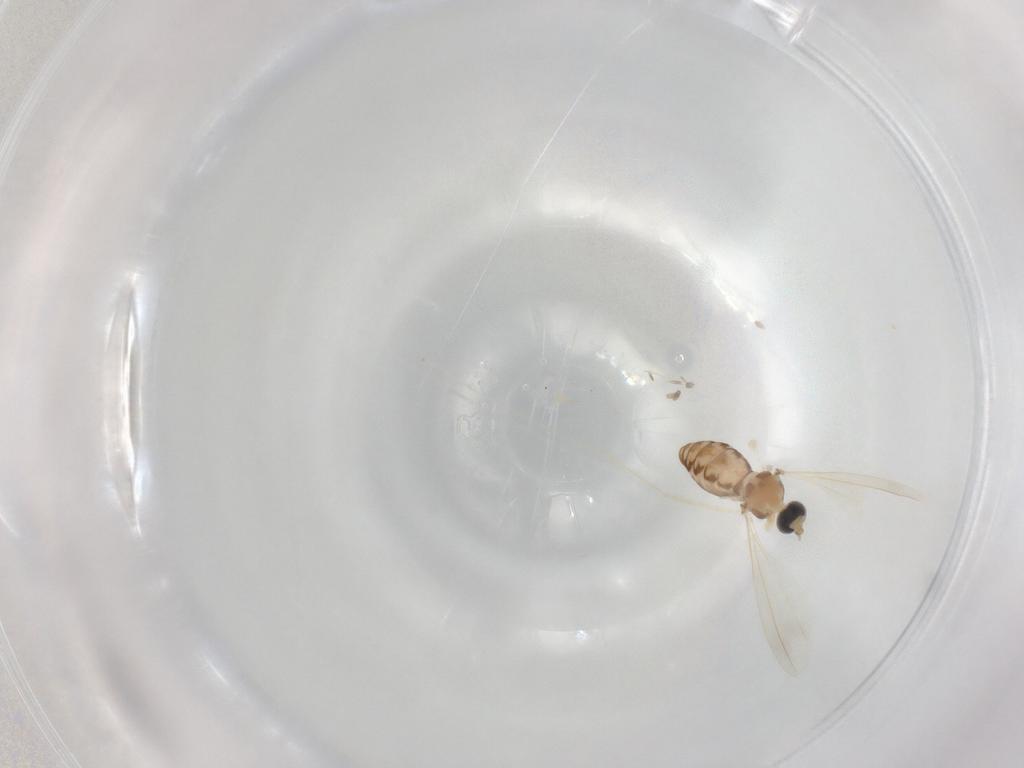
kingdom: Animalia
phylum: Arthropoda
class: Insecta
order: Diptera
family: Cecidomyiidae
